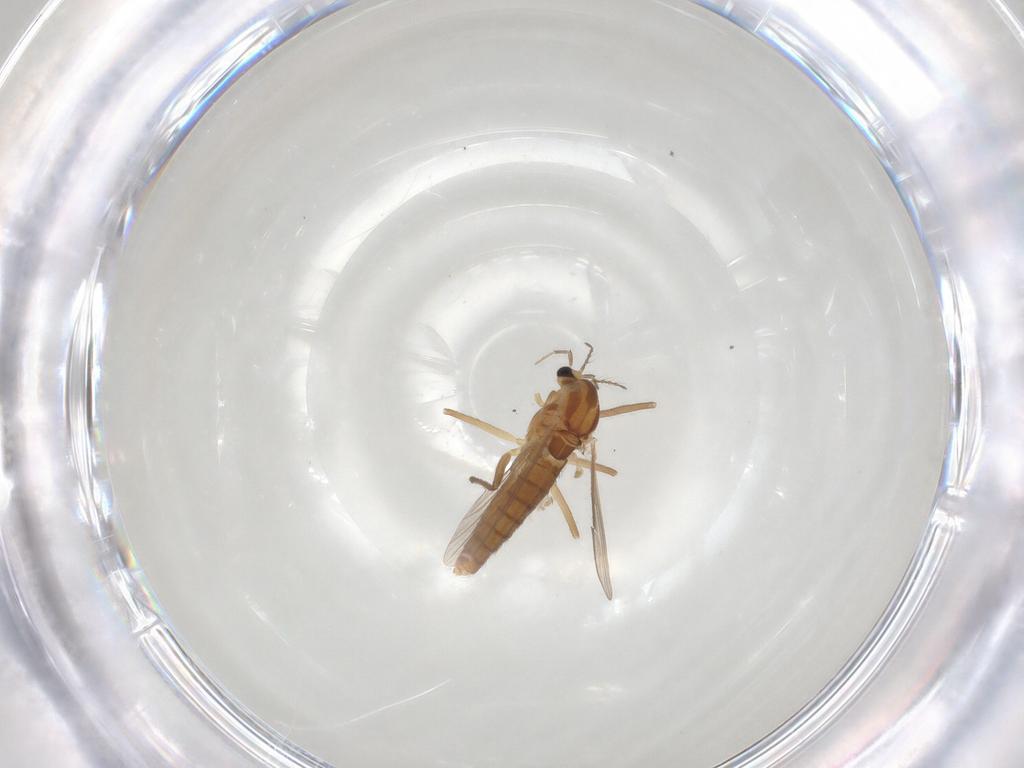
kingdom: Animalia
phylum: Arthropoda
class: Insecta
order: Diptera
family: Chironomidae
